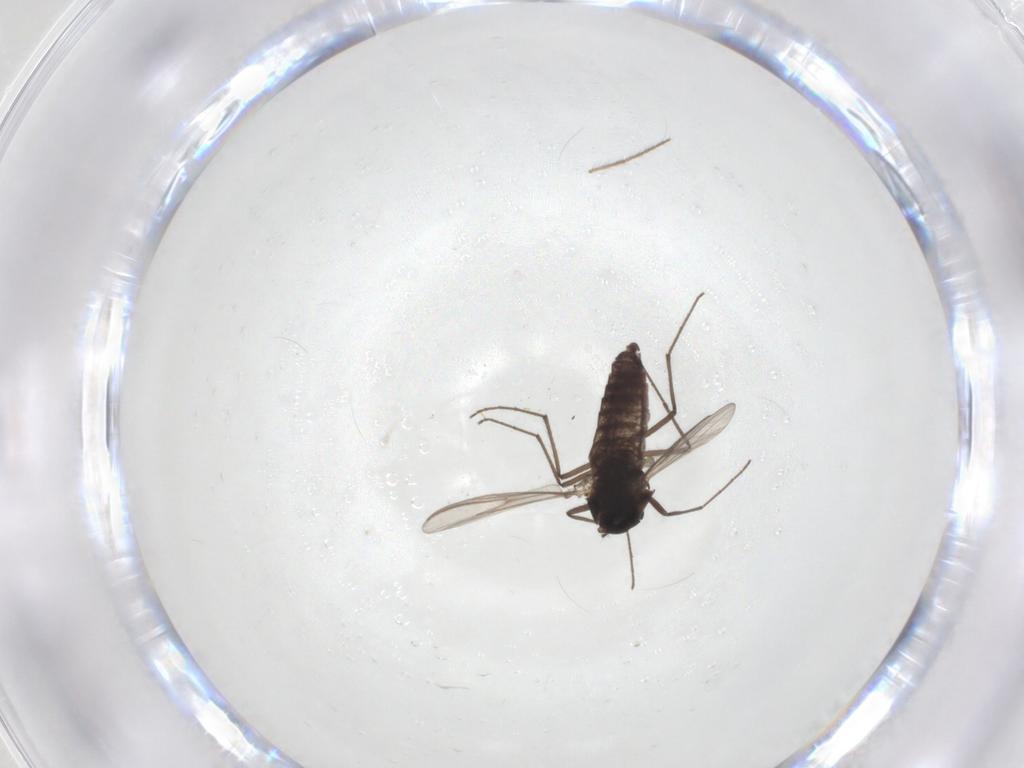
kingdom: Animalia
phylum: Arthropoda
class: Insecta
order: Diptera
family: Chironomidae
